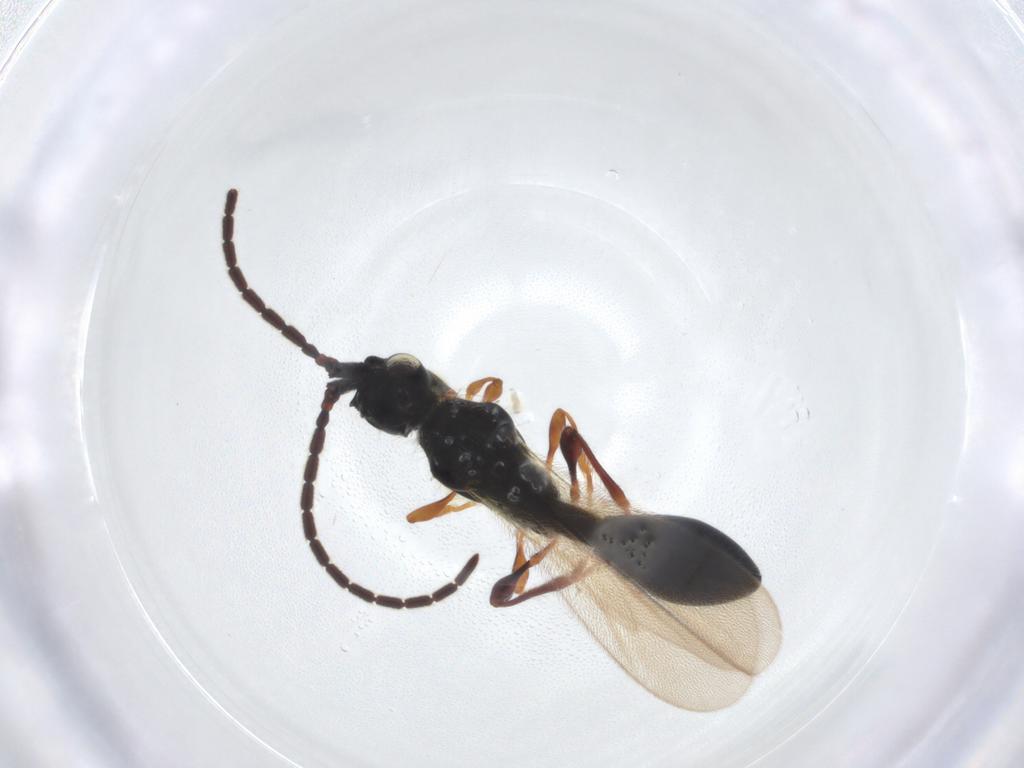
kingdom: Animalia
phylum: Arthropoda
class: Insecta
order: Hymenoptera
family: Diapriidae
